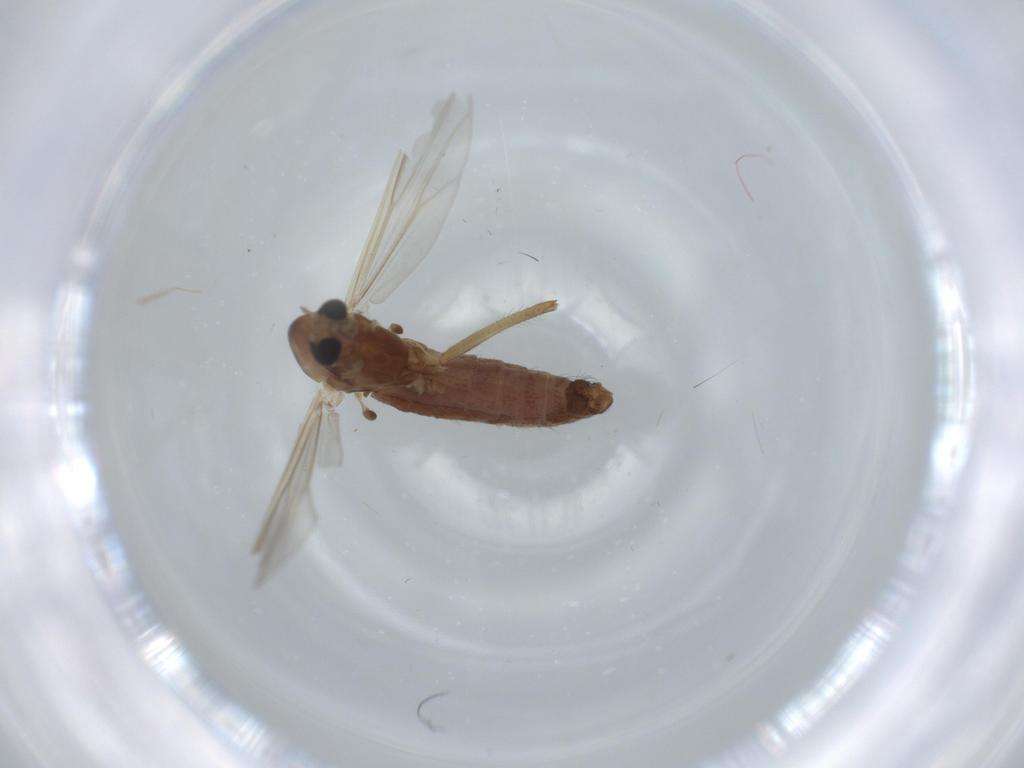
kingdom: Animalia
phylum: Arthropoda
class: Insecta
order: Diptera
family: Chironomidae
